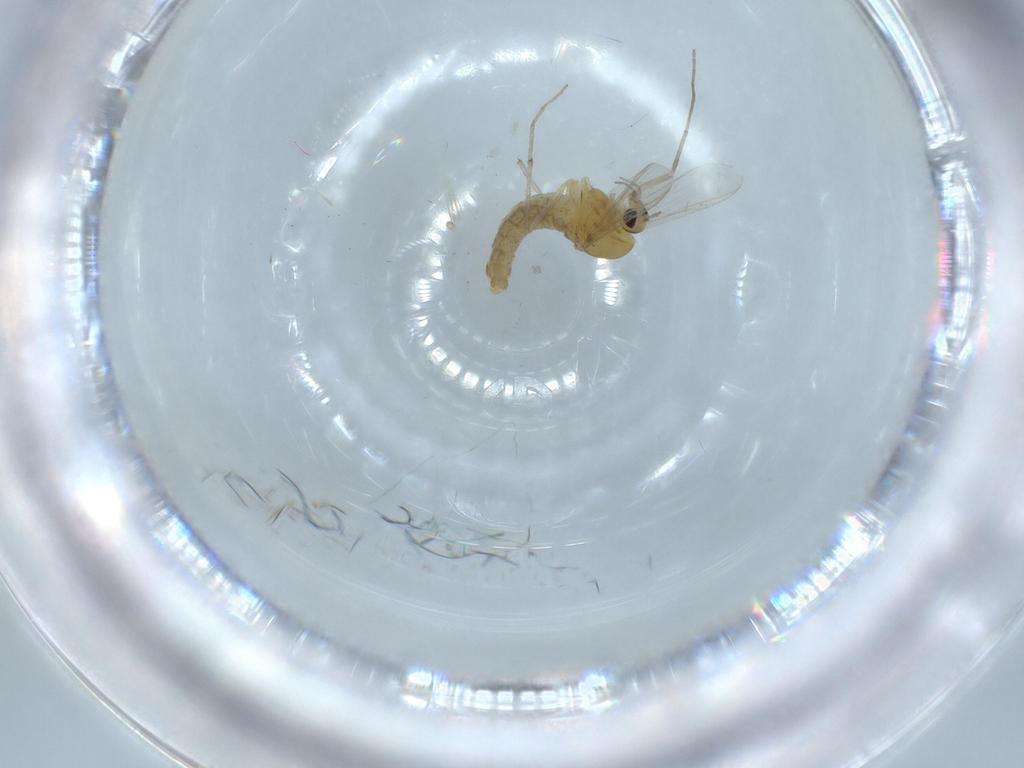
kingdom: Animalia
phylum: Arthropoda
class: Insecta
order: Diptera
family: Chironomidae
